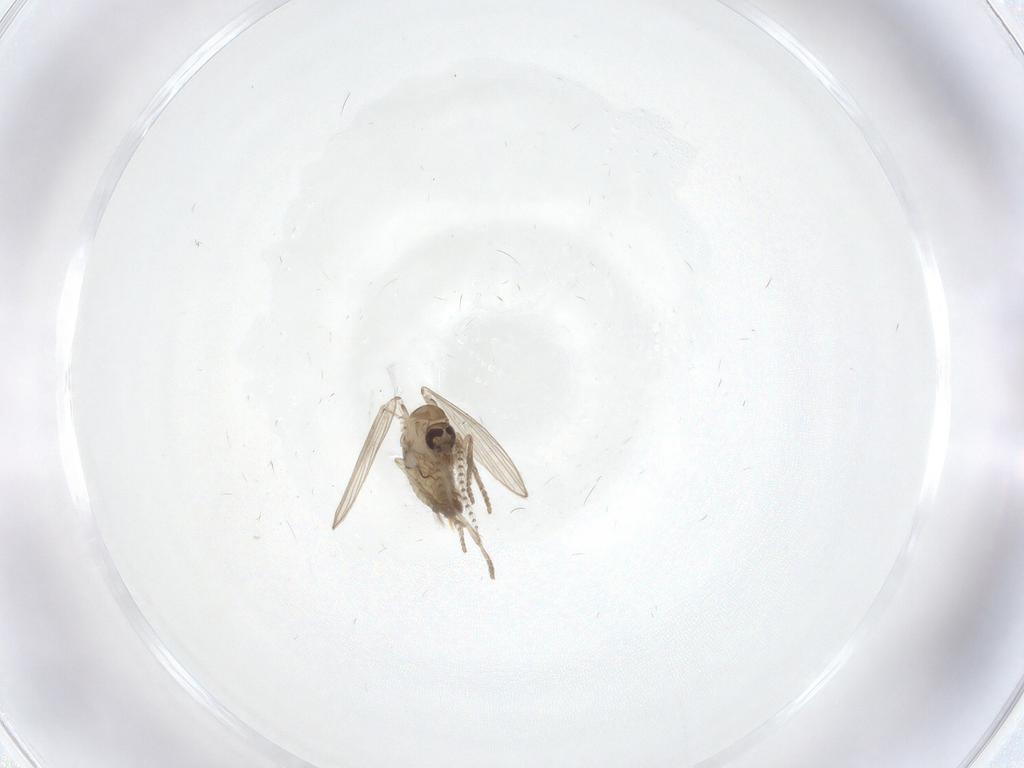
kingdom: Animalia
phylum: Arthropoda
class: Insecta
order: Diptera
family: Psychodidae
